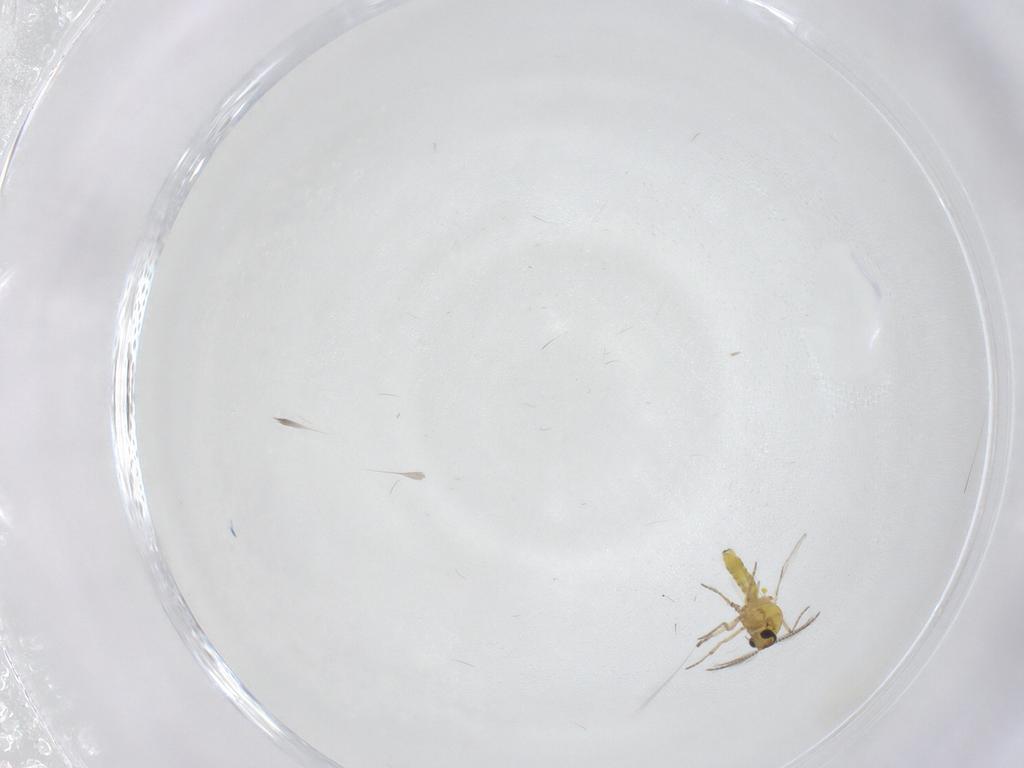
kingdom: Animalia
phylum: Arthropoda
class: Insecta
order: Diptera
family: Ceratopogonidae
